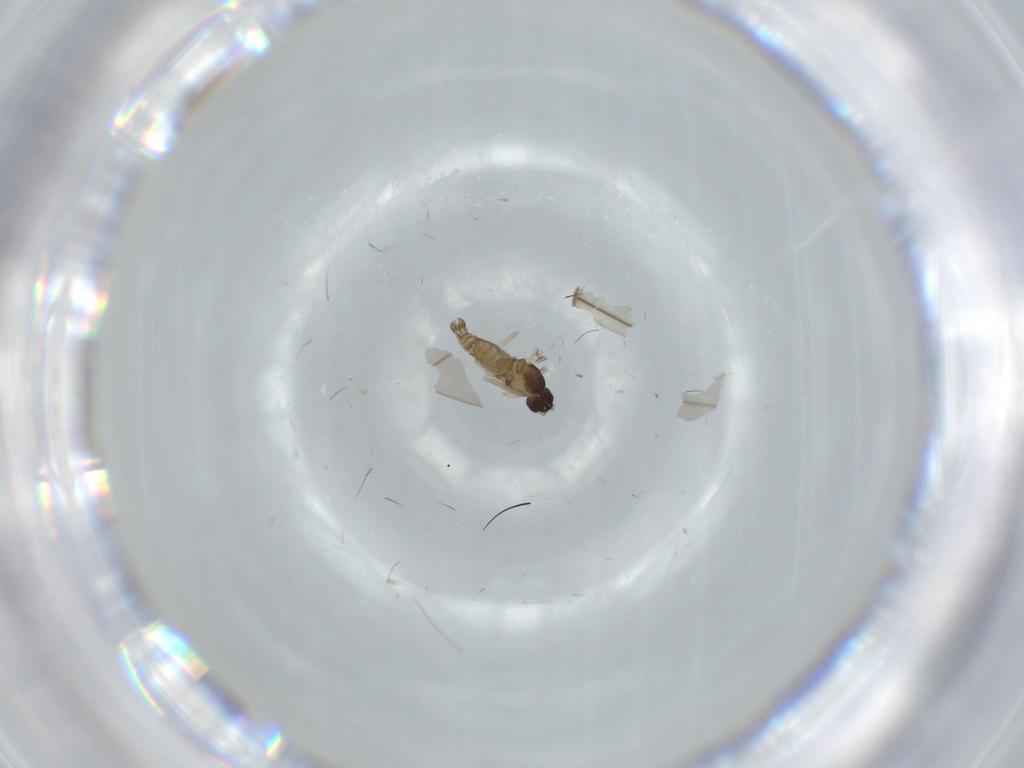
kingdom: Animalia
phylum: Arthropoda
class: Insecta
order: Diptera
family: Cecidomyiidae
